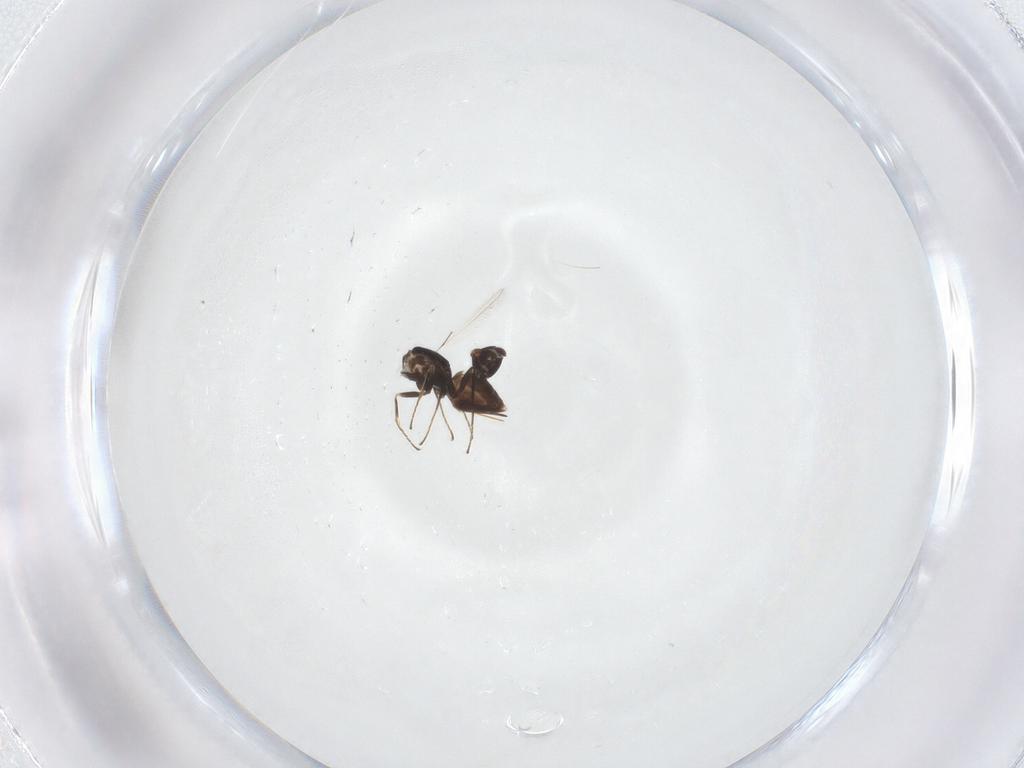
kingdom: Animalia
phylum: Arthropoda
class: Insecta
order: Hymenoptera
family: Mymaridae
